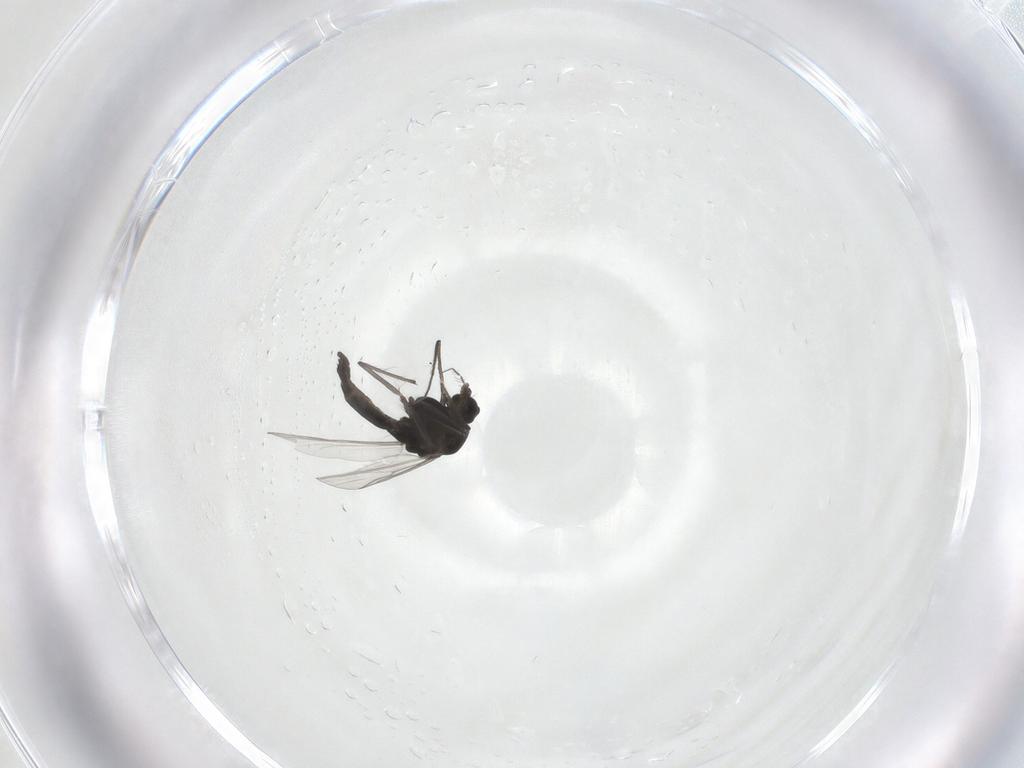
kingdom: Animalia
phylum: Arthropoda
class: Insecta
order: Diptera
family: Chironomidae
